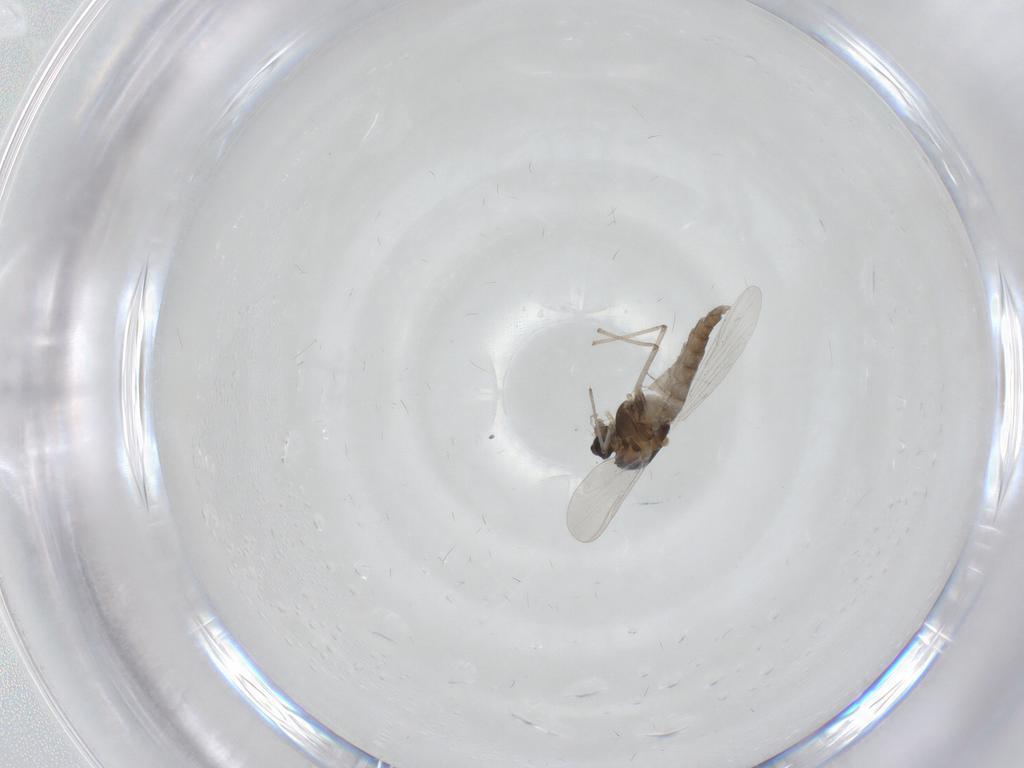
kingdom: Animalia
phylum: Arthropoda
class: Insecta
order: Diptera
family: Chironomidae
